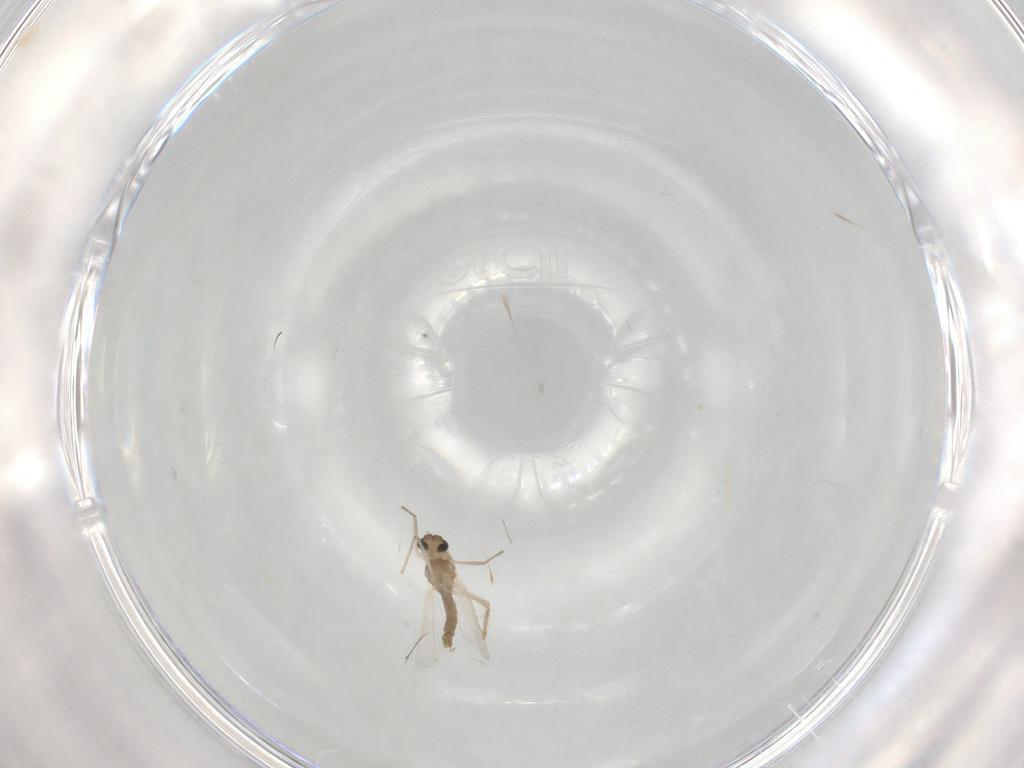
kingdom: Animalia
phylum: Arthropoda
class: Insecta
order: Diptera
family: Chironomidae
